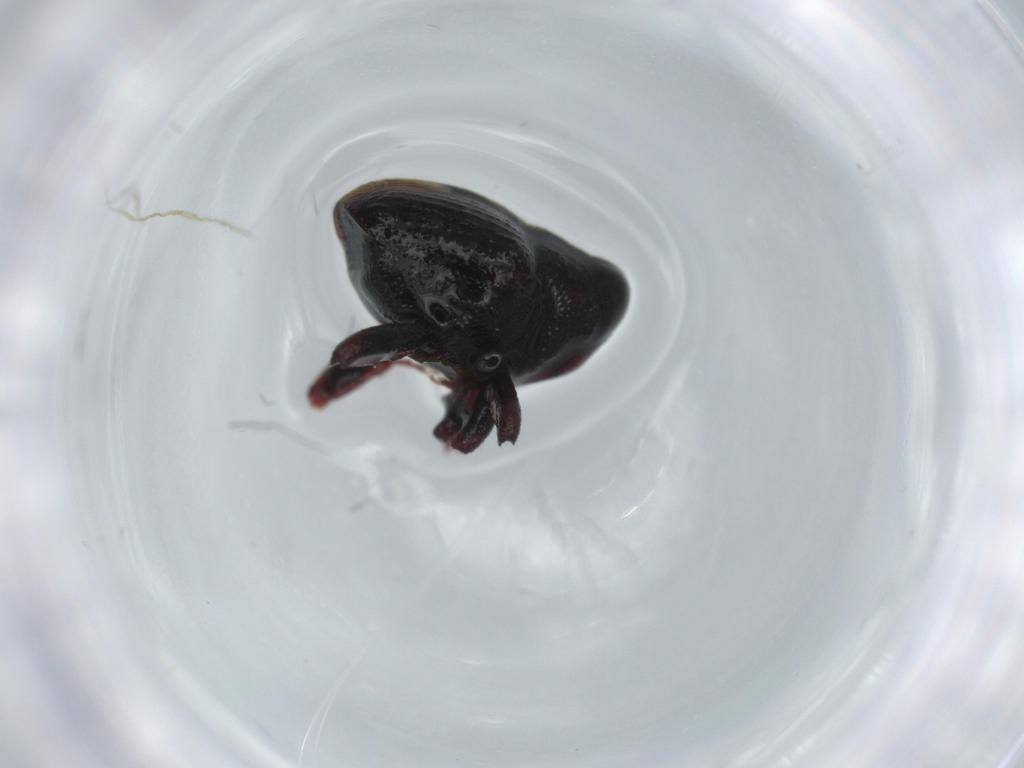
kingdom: Animalia
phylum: Arthropoda
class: Insecta
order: Coleoptera
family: Curculionidae
